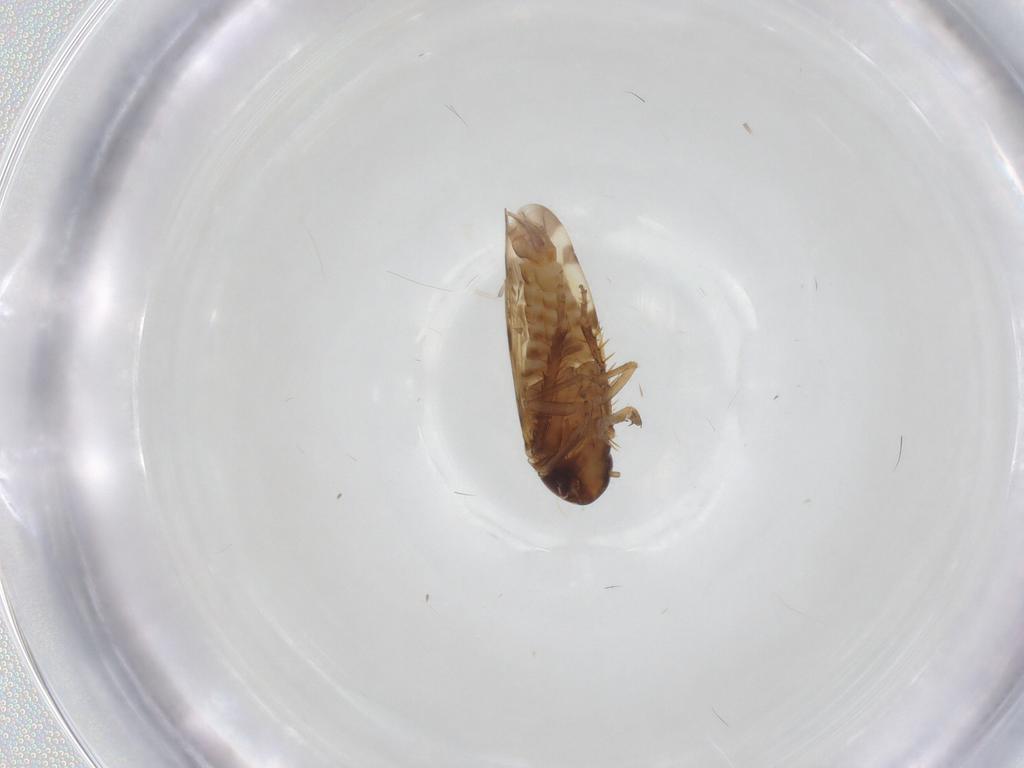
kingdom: Animalia
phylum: Arthropoda
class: Insecta
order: Hemiptera
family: Cicadellidae
